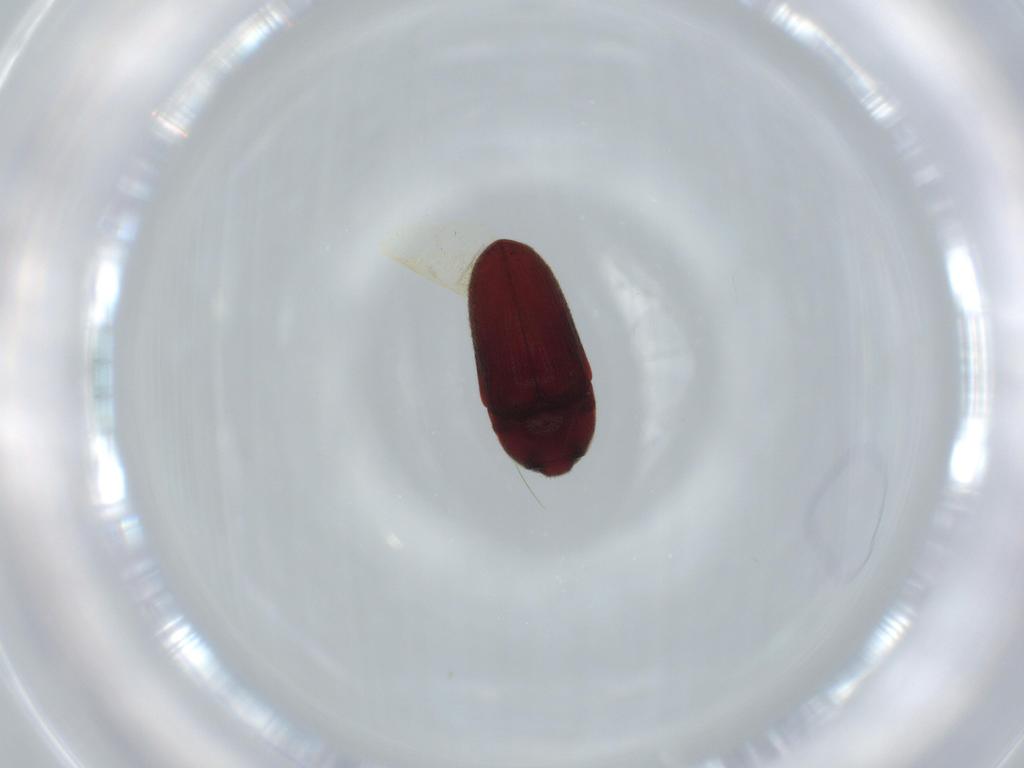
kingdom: Animalia
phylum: Arthropoda
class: Insecta
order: Coleoptera
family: Throscidae
